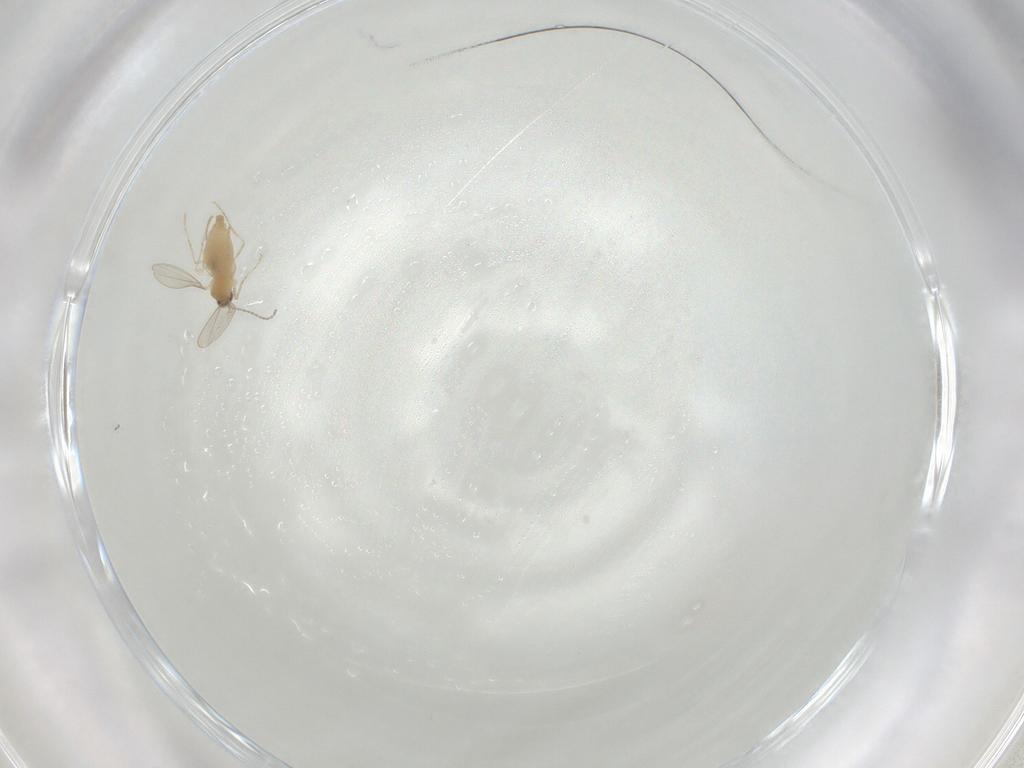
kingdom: Animalia
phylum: Arthropoda
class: Insecta
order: Diptera
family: Cecidomyiidae
